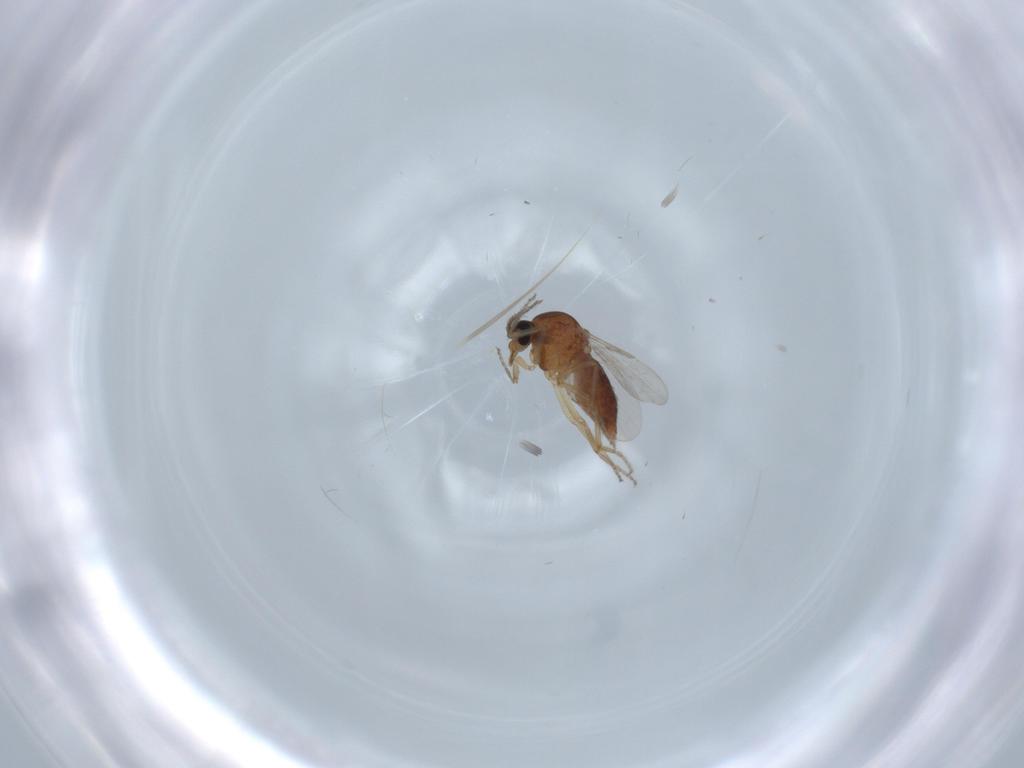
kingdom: Animalia
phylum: Arthropoda
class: Insecta
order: Diptera
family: Ceratopogonidae
